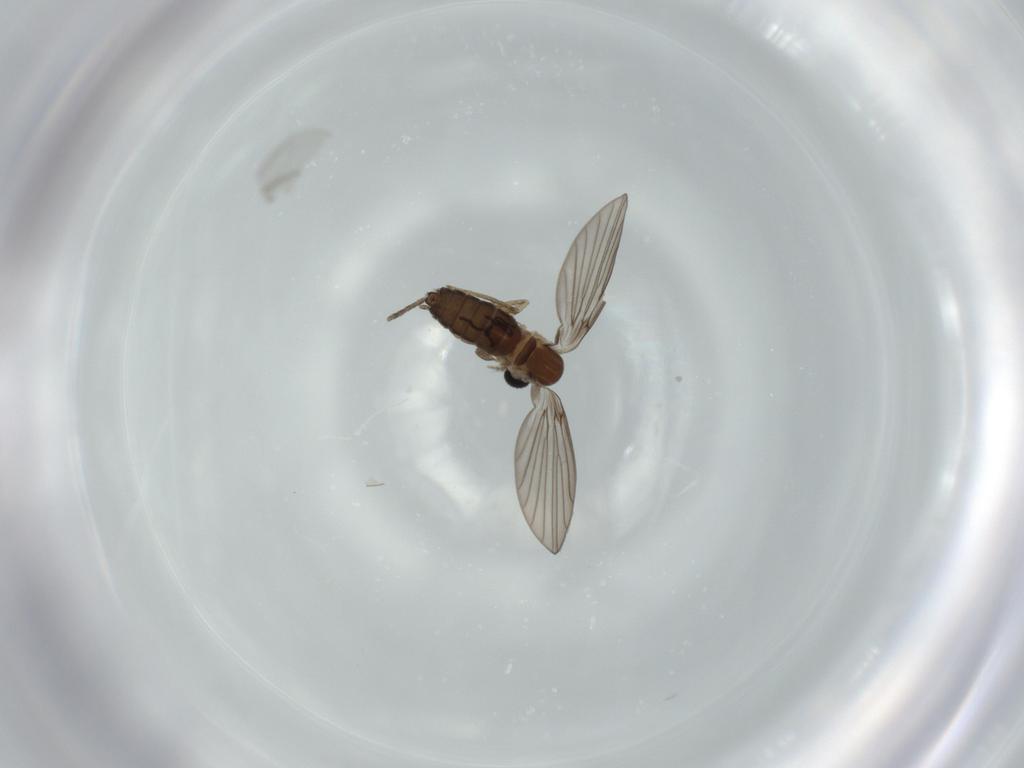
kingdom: Animalia
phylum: Arthropoda
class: Insecta
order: Diptera
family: Cecidomyiidae
